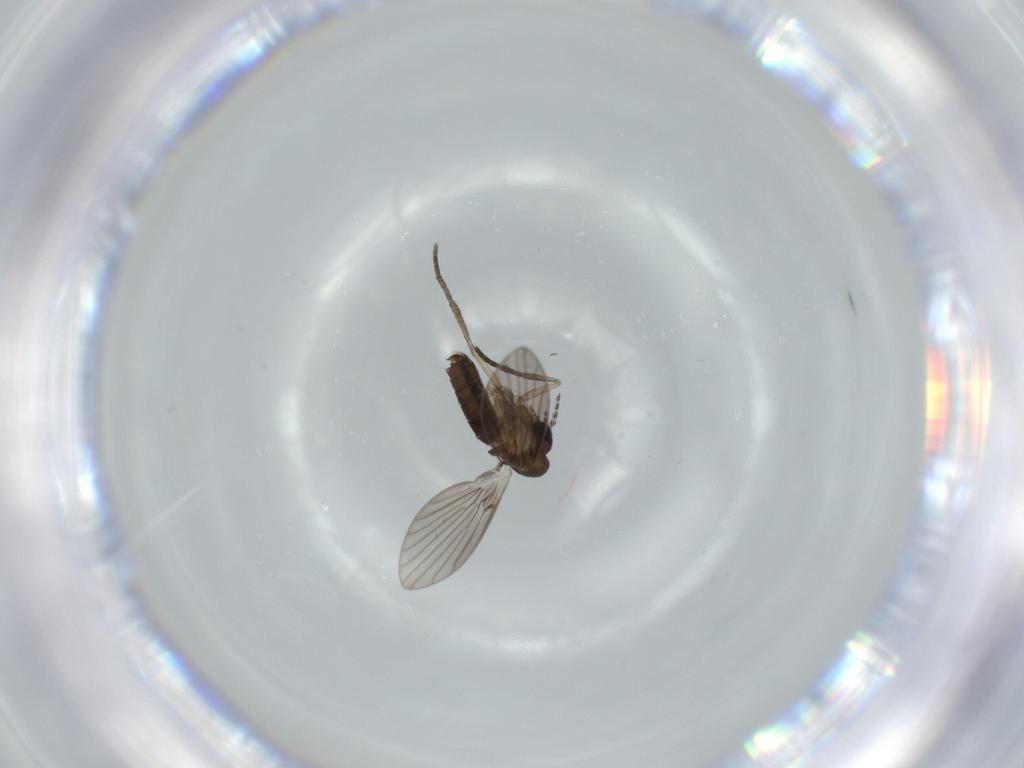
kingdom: Animalia
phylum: Arthropoda
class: Insecta
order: Diptera
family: Psychodidae
